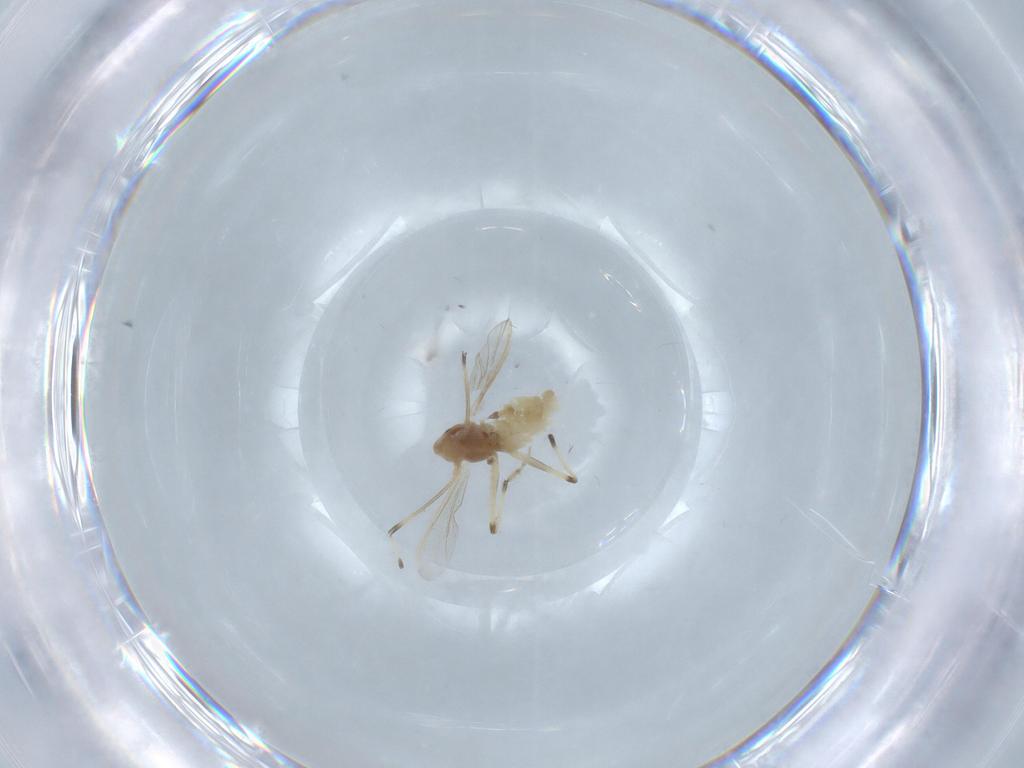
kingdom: Animalia
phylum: Arthropoda
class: Insecta
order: Diptera
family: Chironomidae
